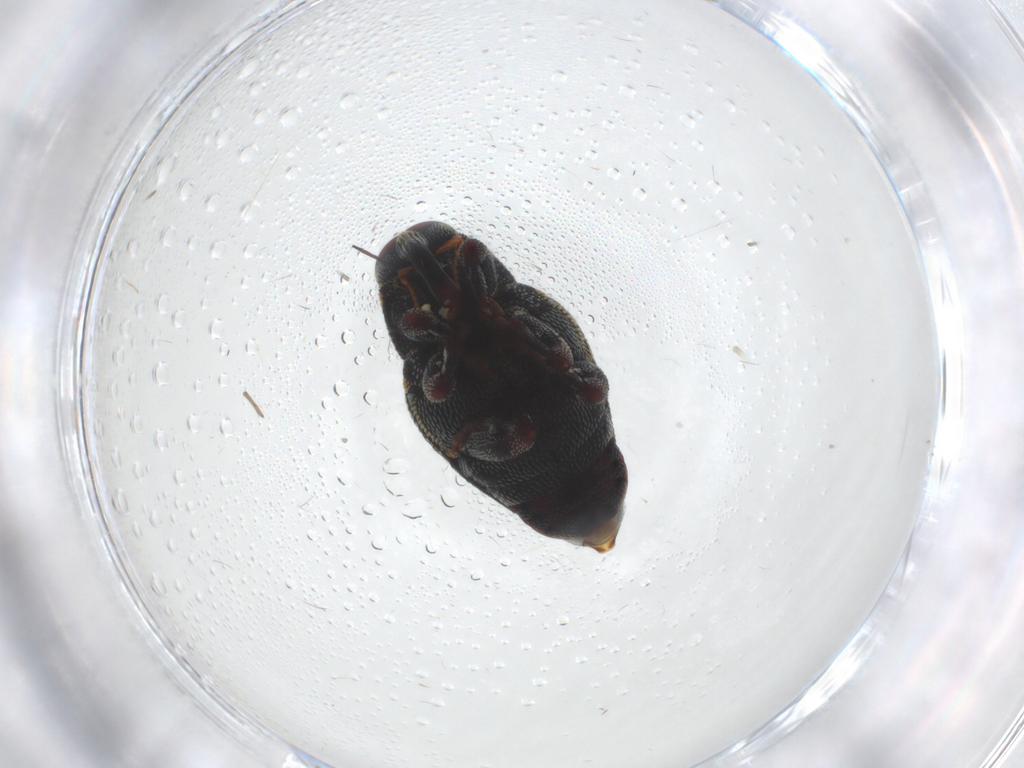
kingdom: Animalia
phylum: Arthropoda
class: Insecta
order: Coleoptera
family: Curculionidae
